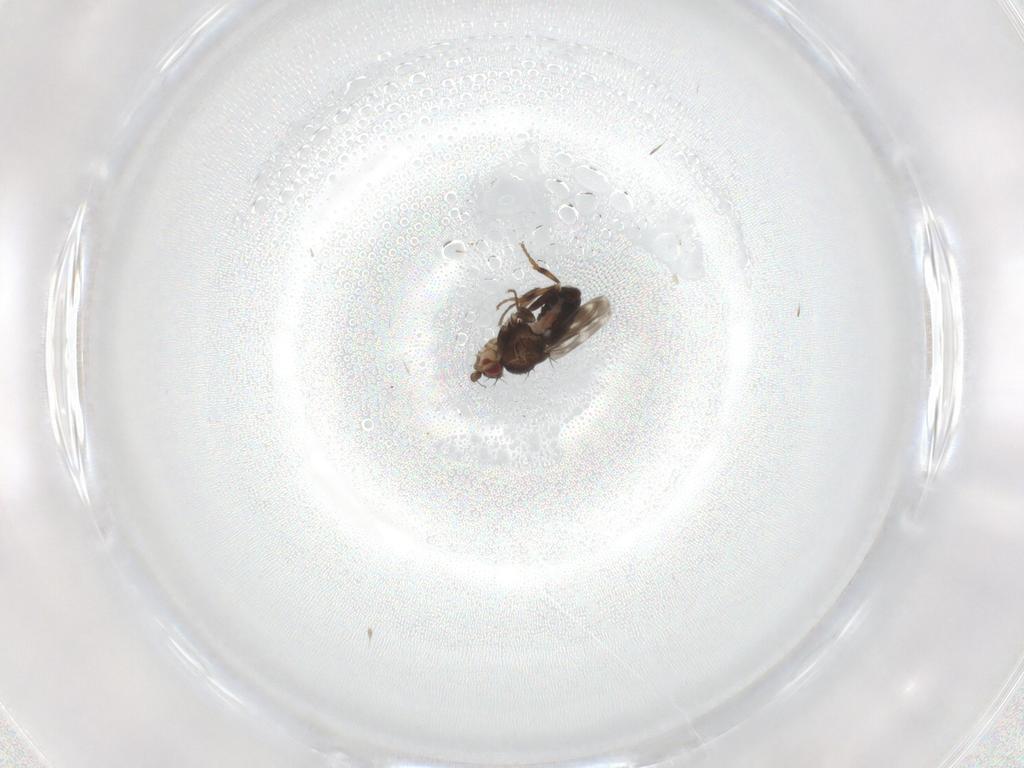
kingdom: Animalia
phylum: Arthropoda
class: Insecta
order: Diptera
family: Sphaeroceridae
